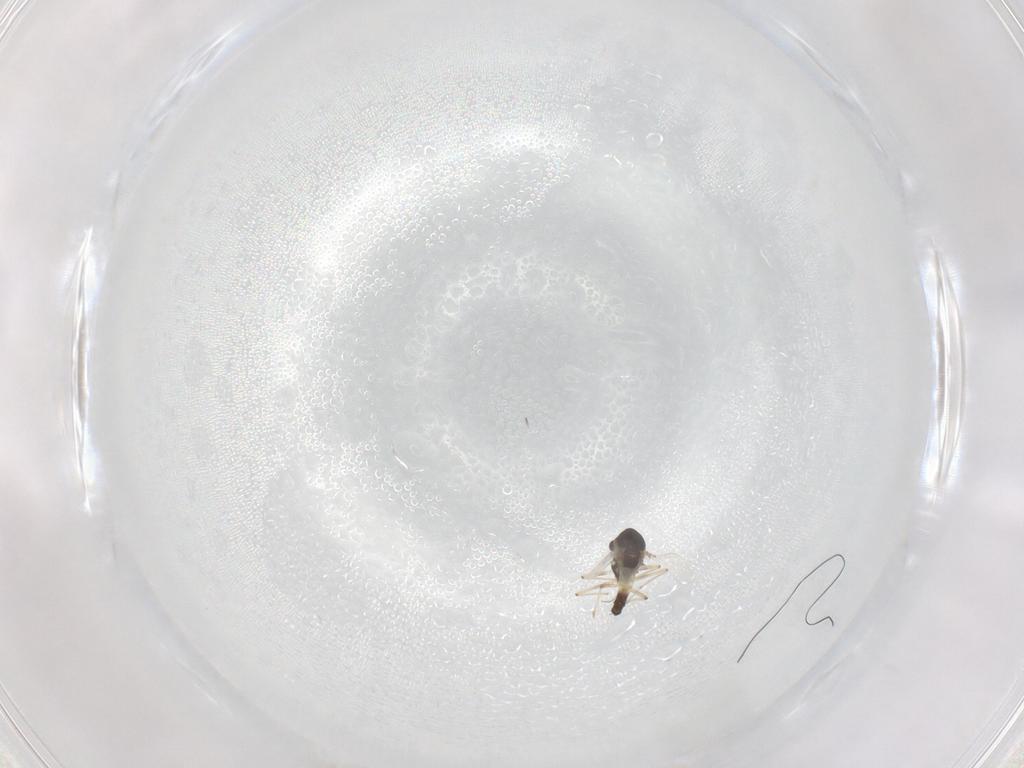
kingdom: Animalia
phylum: Arthropoda
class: Insecta
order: Diptera
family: Chironomidae
